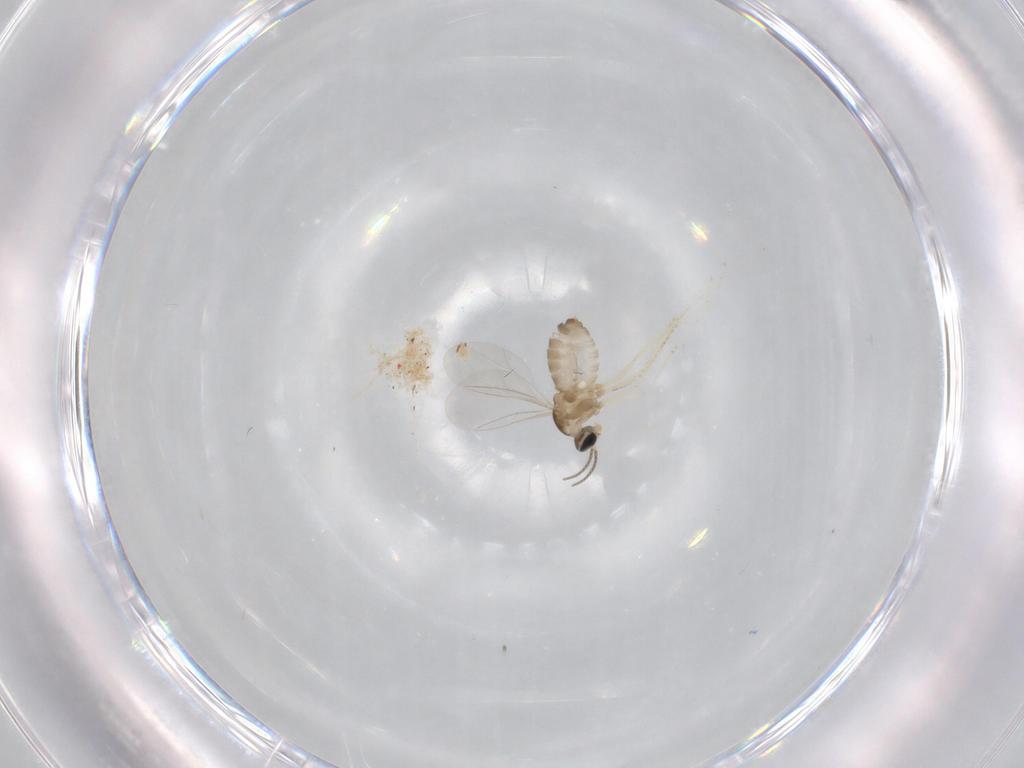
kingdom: Animalia
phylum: Arthropoda
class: Insecta
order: Diptera
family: Cecidomyiidae
